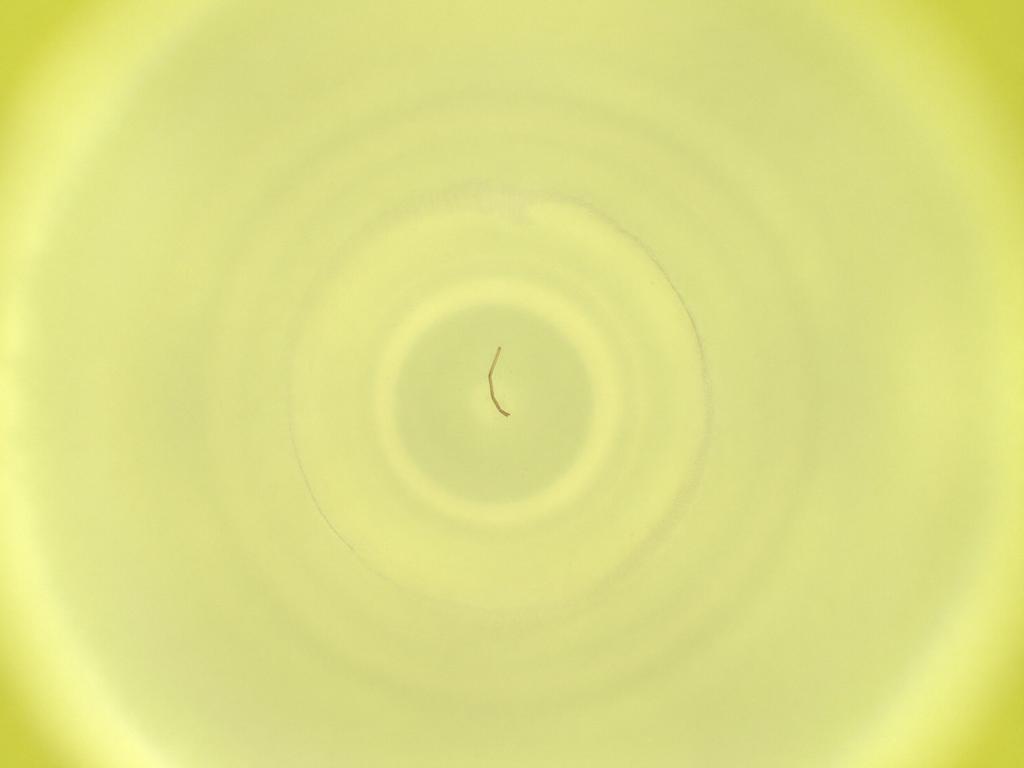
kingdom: Animalia
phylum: Arthropoda
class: Insecta
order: Diptera
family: Cecidomyiidae
